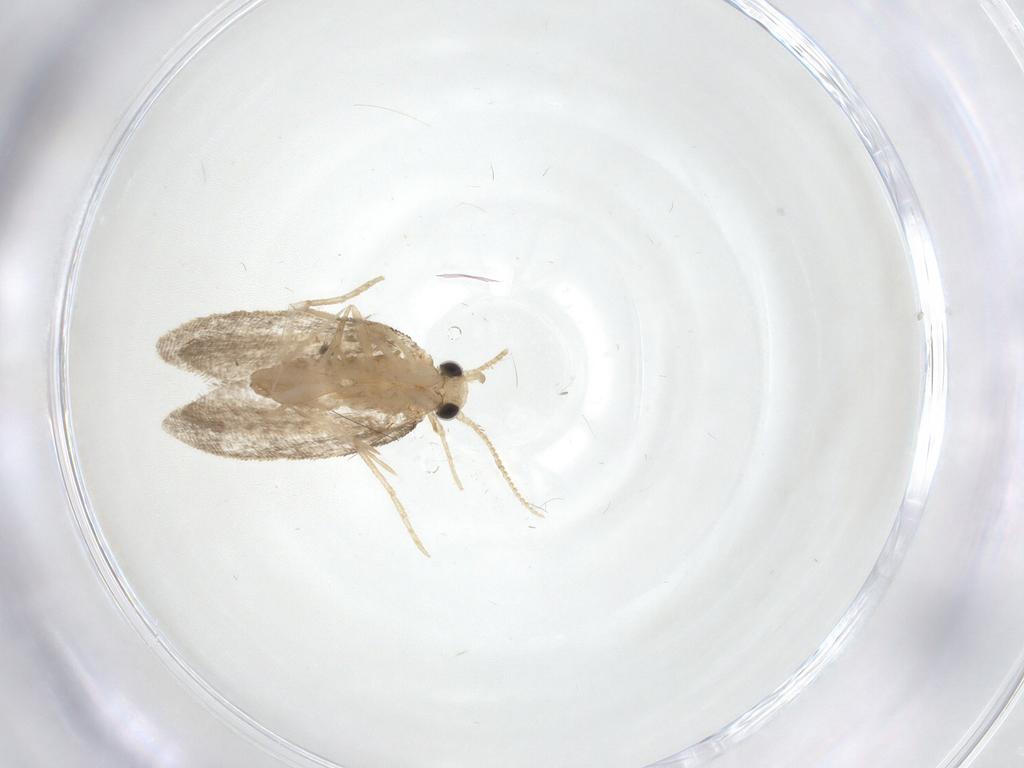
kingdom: Animalia
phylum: Arthropoda
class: Insecta
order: Lepidoptera
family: Psychidae
